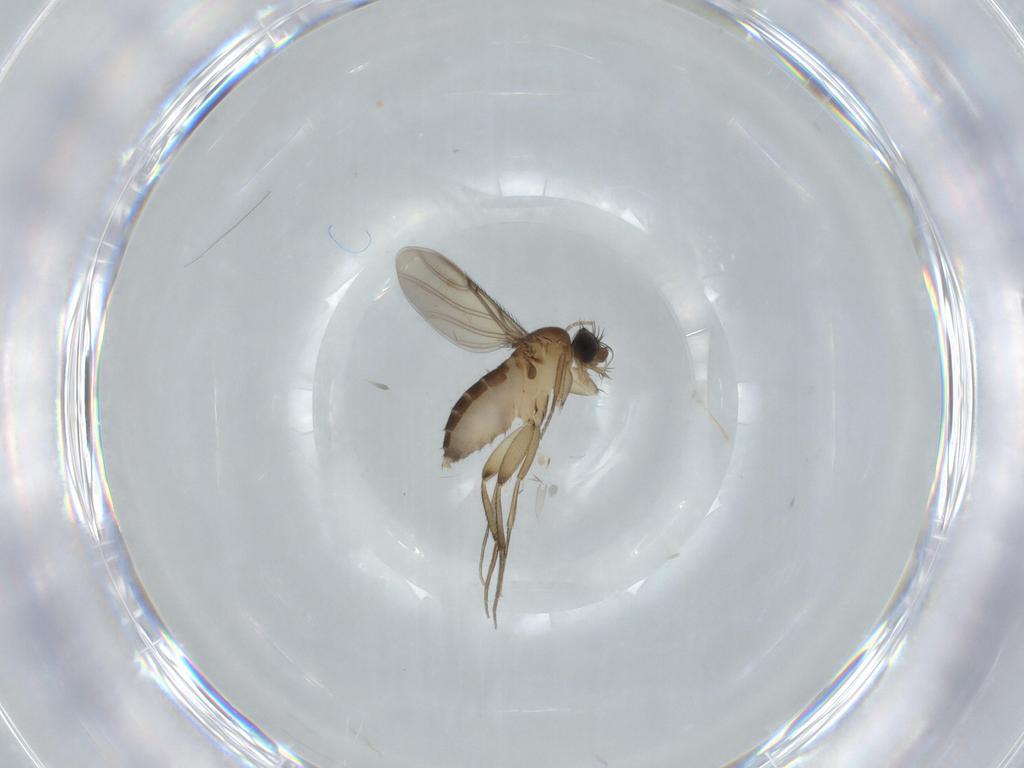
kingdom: Animalia
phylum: Arthropoda
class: Insecta
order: Diptera
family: Phoridae
